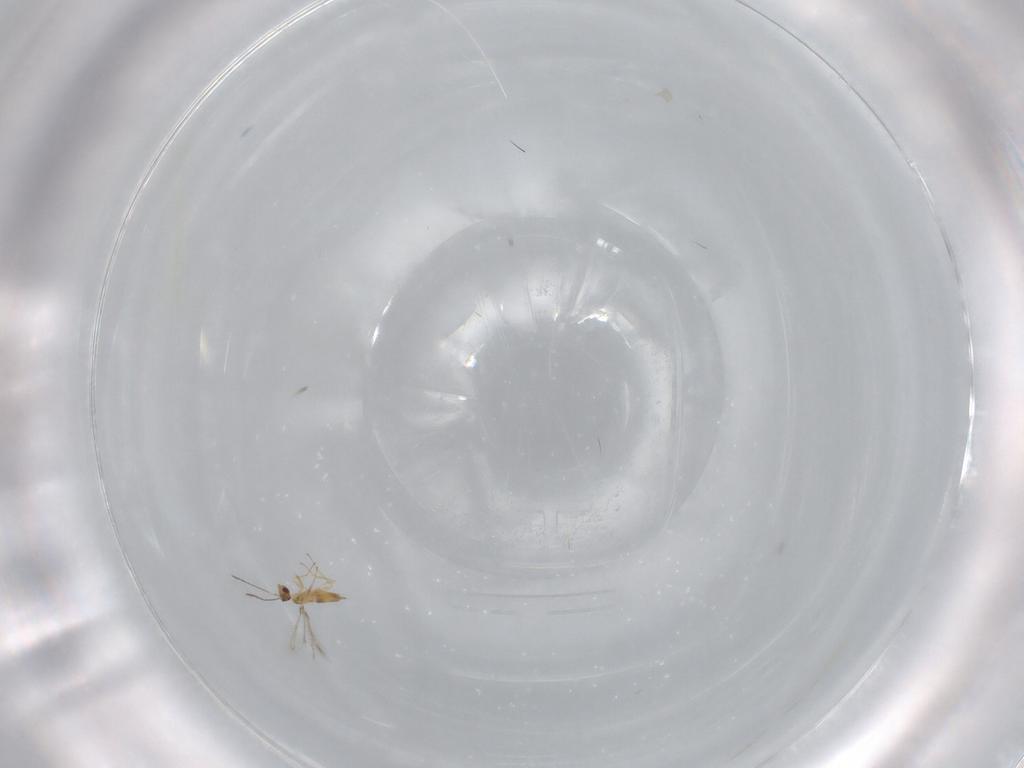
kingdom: Animalia
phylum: Arthropoda
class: Insecta
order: Hymenoptera
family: Mymaridae
